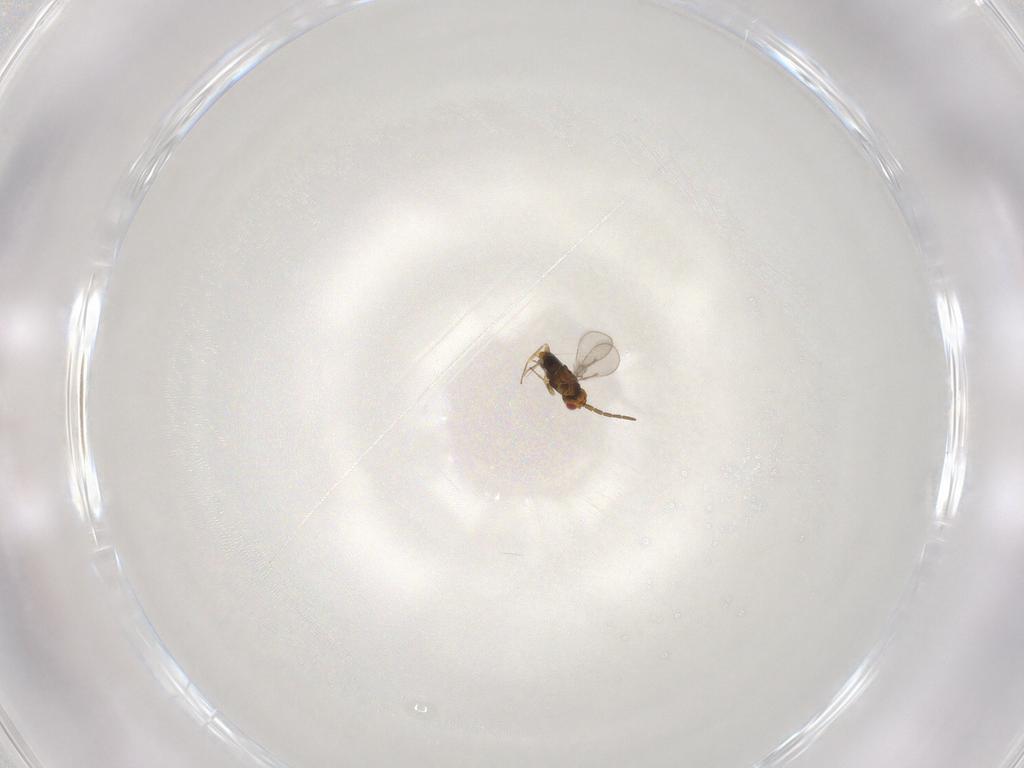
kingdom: Animalia
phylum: Arthropoda
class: Insecta
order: Hymenoptera
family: Aphelinidae
